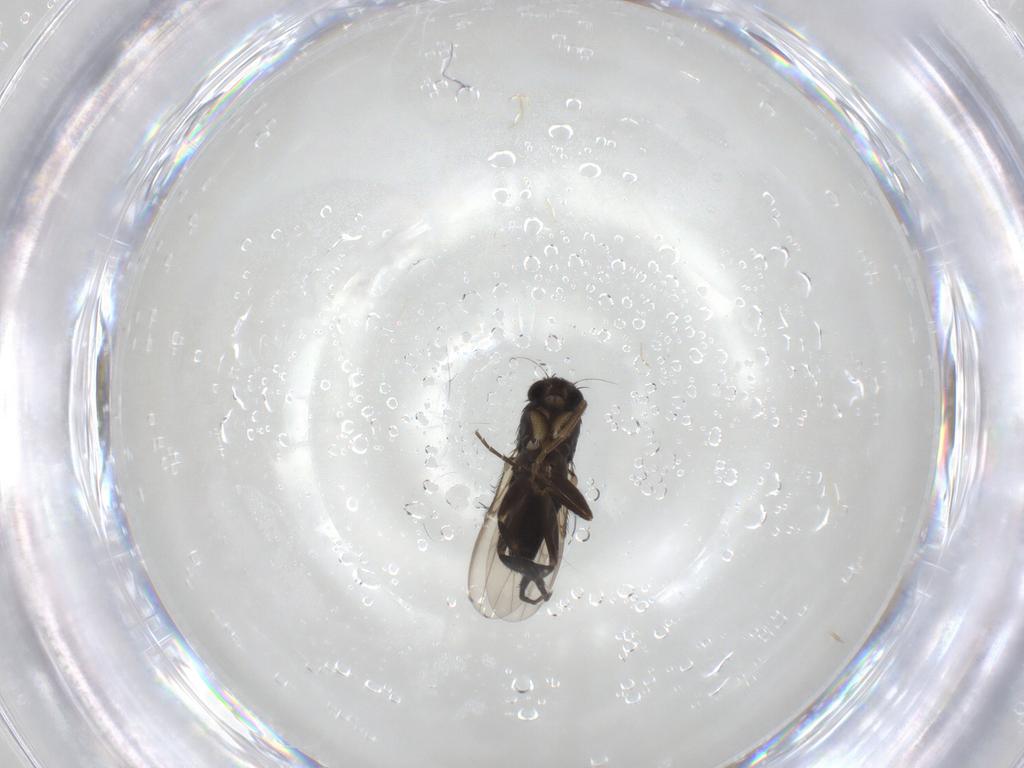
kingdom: Animalia
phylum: Arthropoda
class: Insecta
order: Diptera
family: Phoridae
